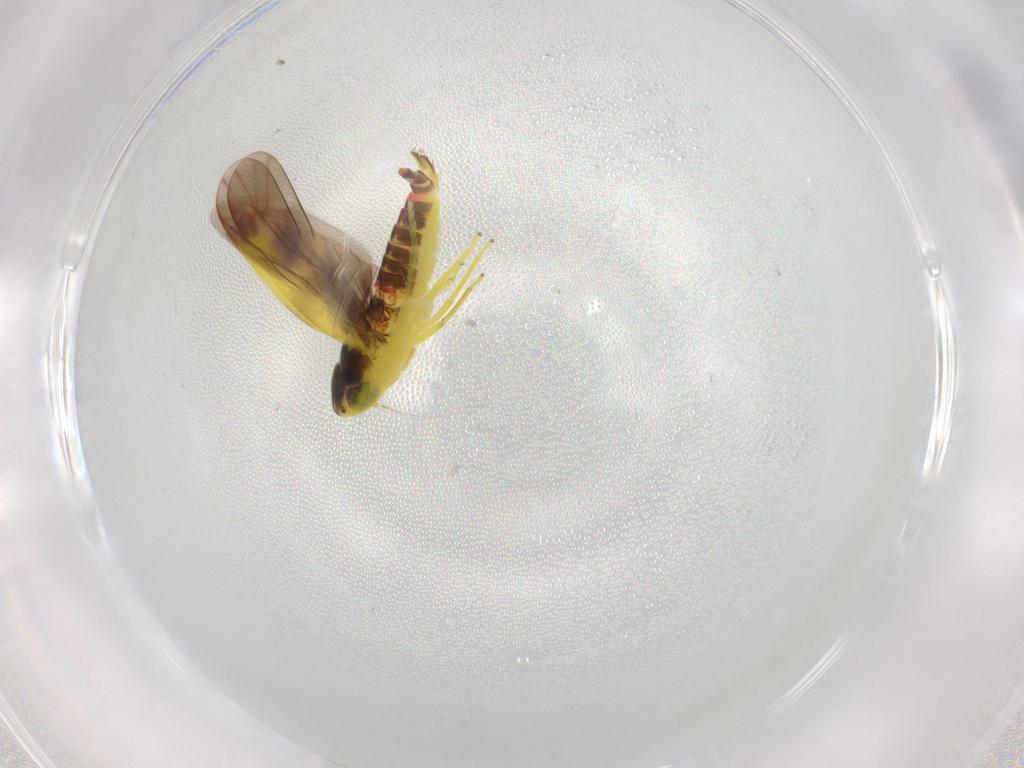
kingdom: Animalia
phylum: Arthropoda
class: Insecta
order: Hemiptera
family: Cicadellidae
